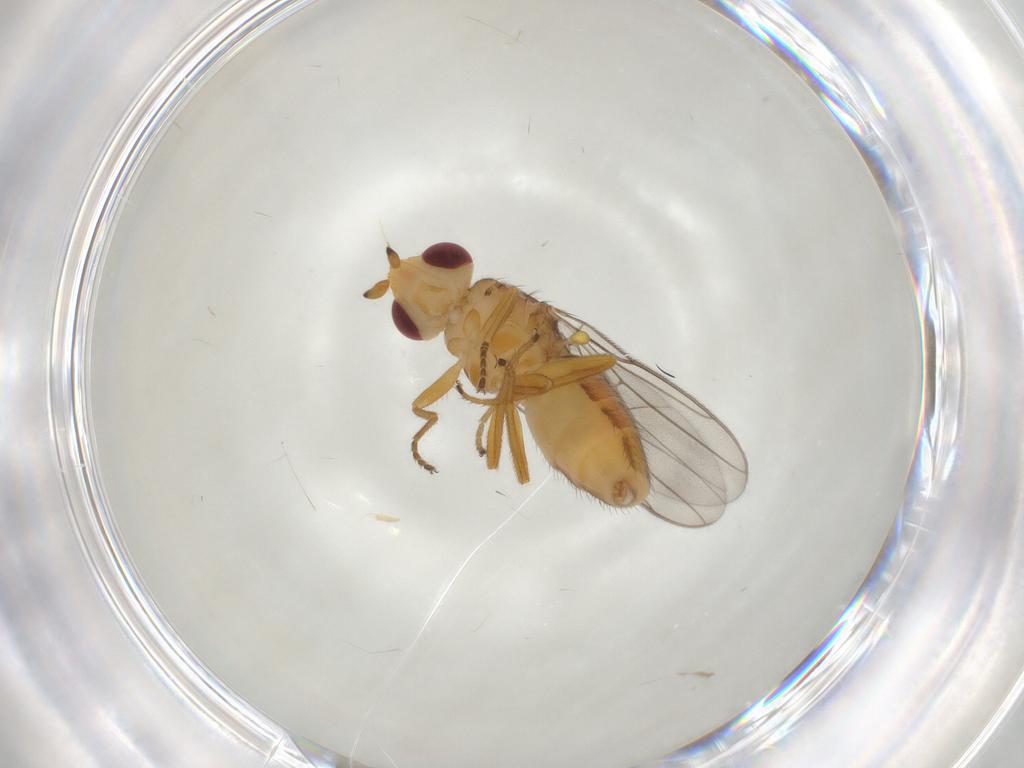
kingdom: Animalia
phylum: Arthropoda
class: Insecta
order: Diptera
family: Chloropidae
